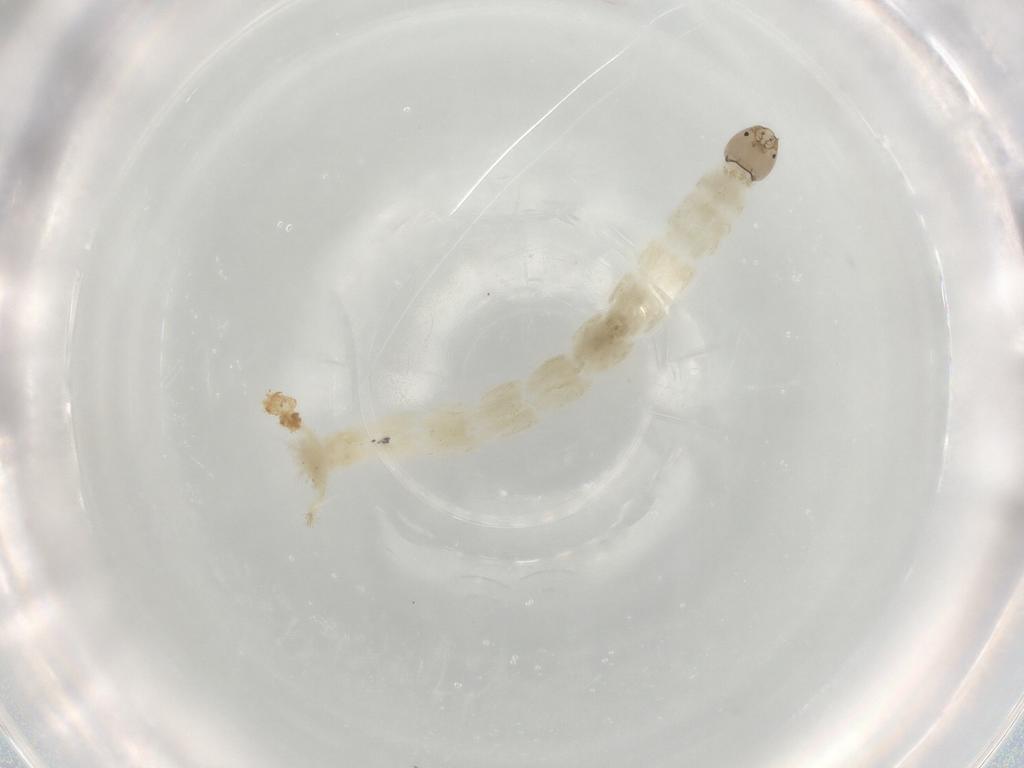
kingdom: Animalia
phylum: Arthropoda
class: Insecta
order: Diptera
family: Chironomidae
